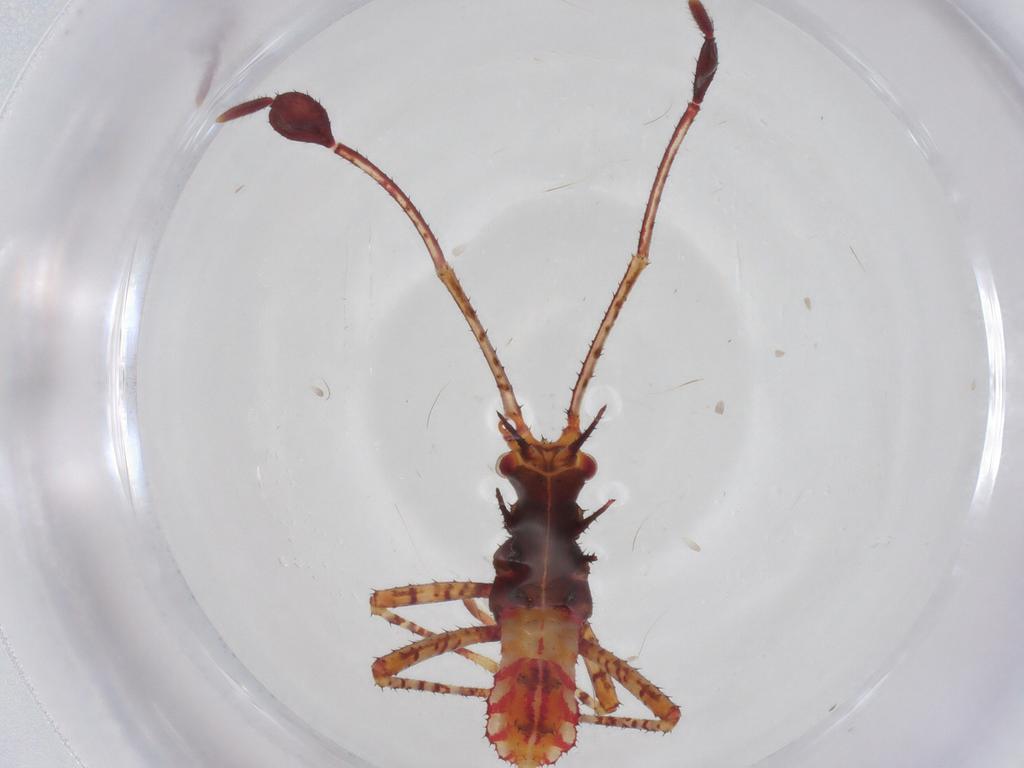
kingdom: Animalia
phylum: Arthropoda
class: Insecta
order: Hemiptera
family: Coreidae
